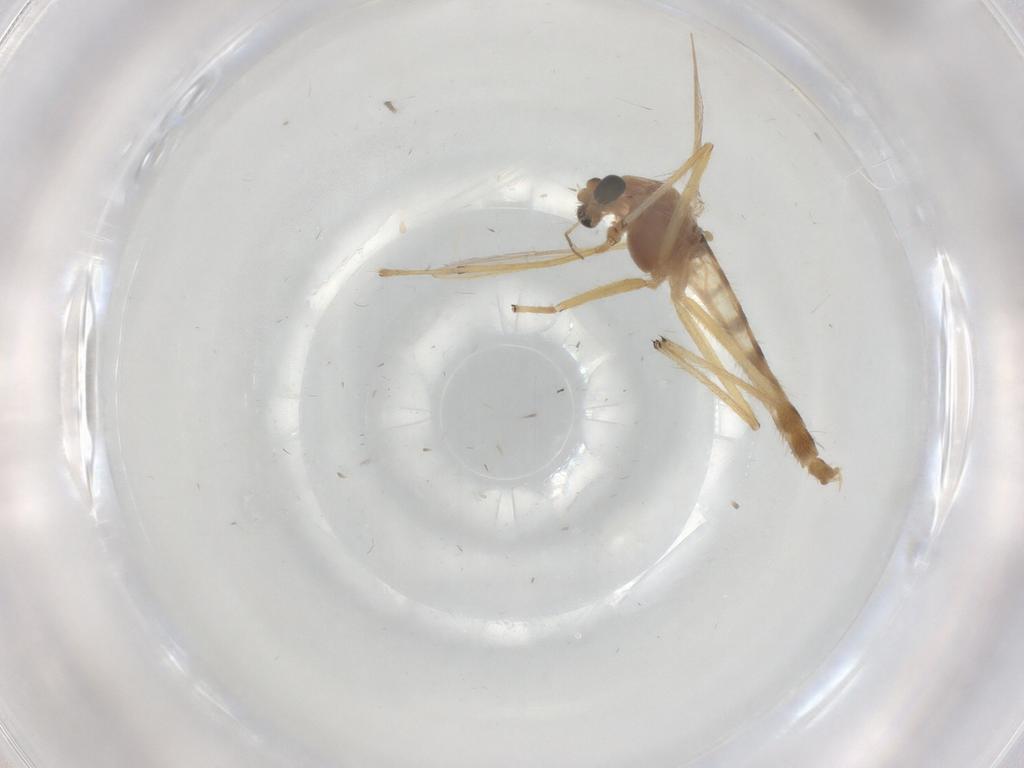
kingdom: Animalia
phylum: Arthropoda
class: Insecta
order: Diptera
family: Chironomidae
